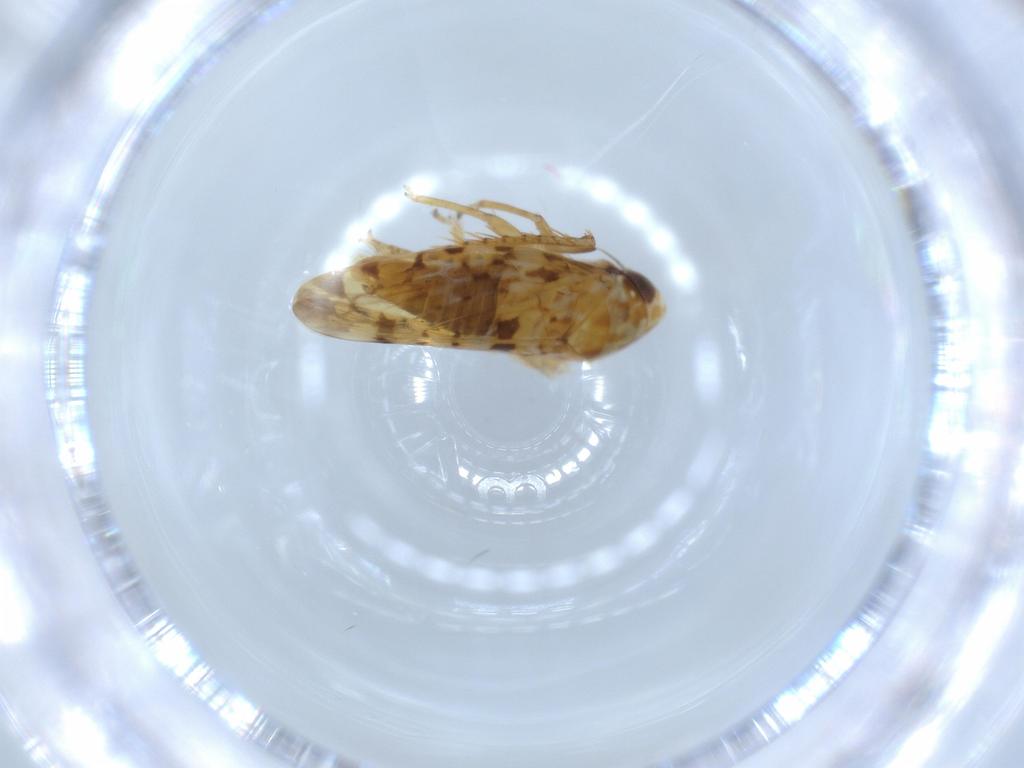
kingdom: Animalia
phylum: Arthropoda
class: Insecta
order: Hemiptera
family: Cicadellidae
